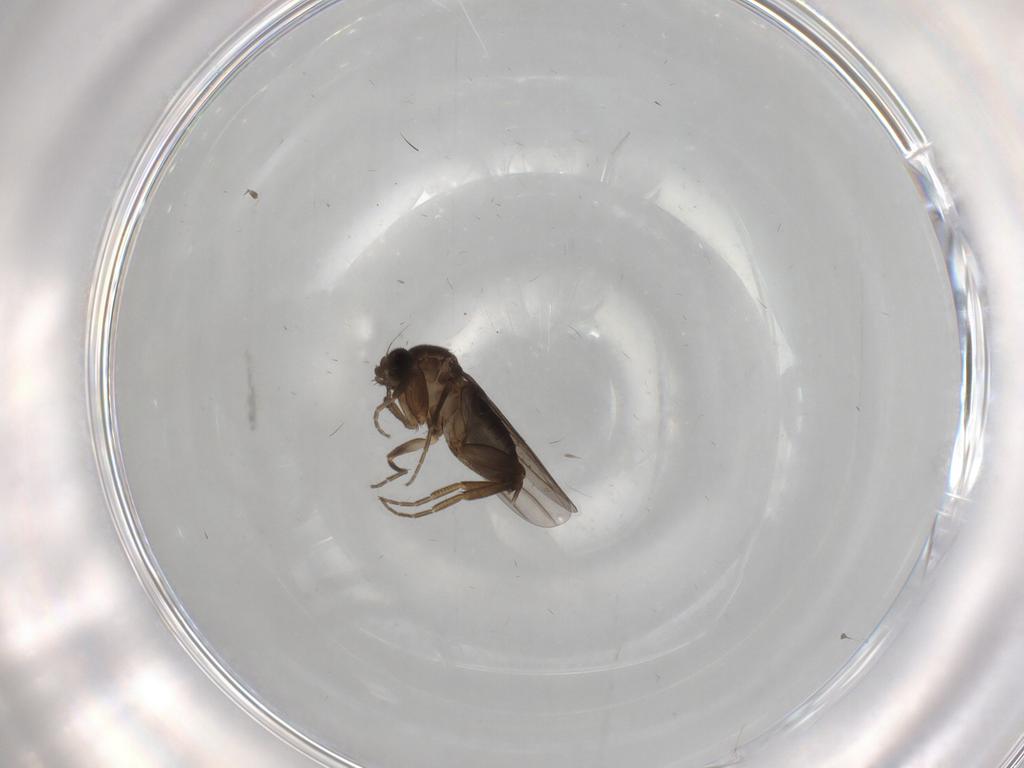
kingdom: Animalia
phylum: Arthropoda
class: Insecta
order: Diptera
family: Phoridae
